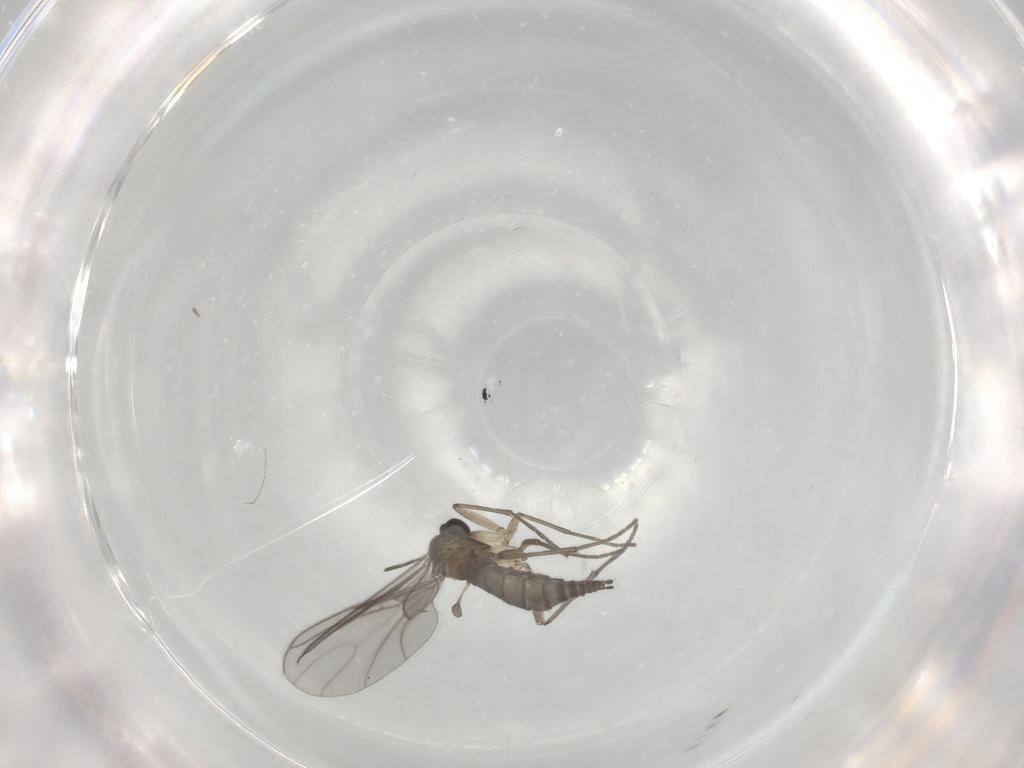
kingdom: Animalia
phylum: Arthropoda
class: Insecta
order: Diptera
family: Sciaridae
